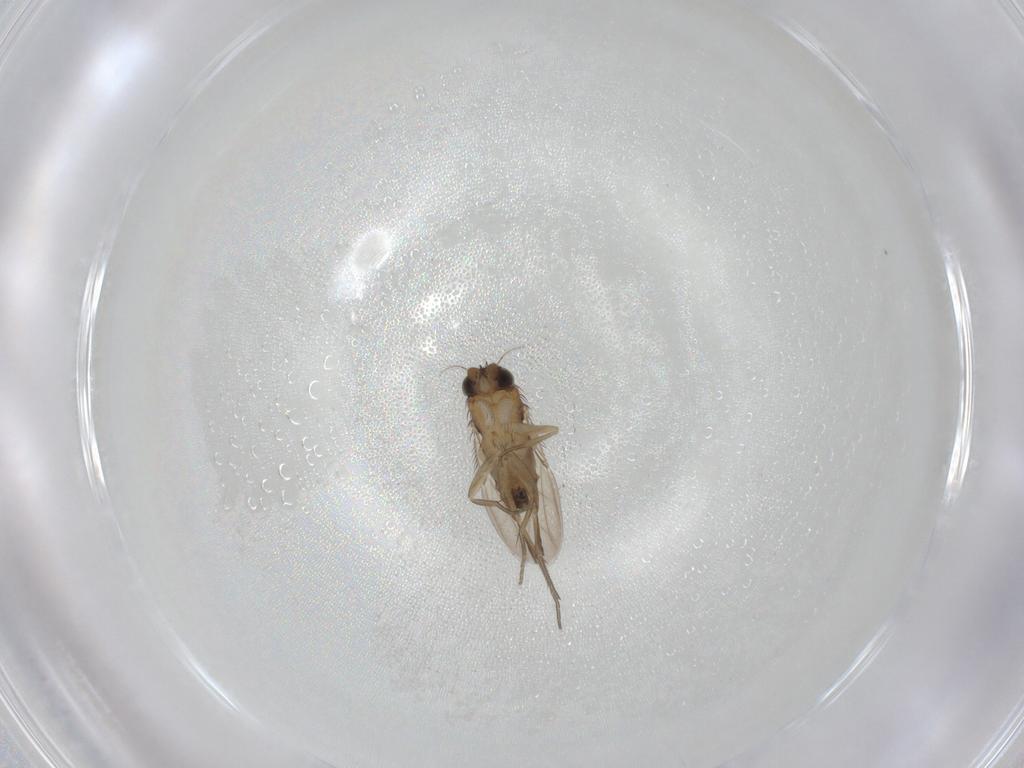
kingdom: Animalia
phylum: Arthropoda
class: Insecta
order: Diptera
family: Phoridae
